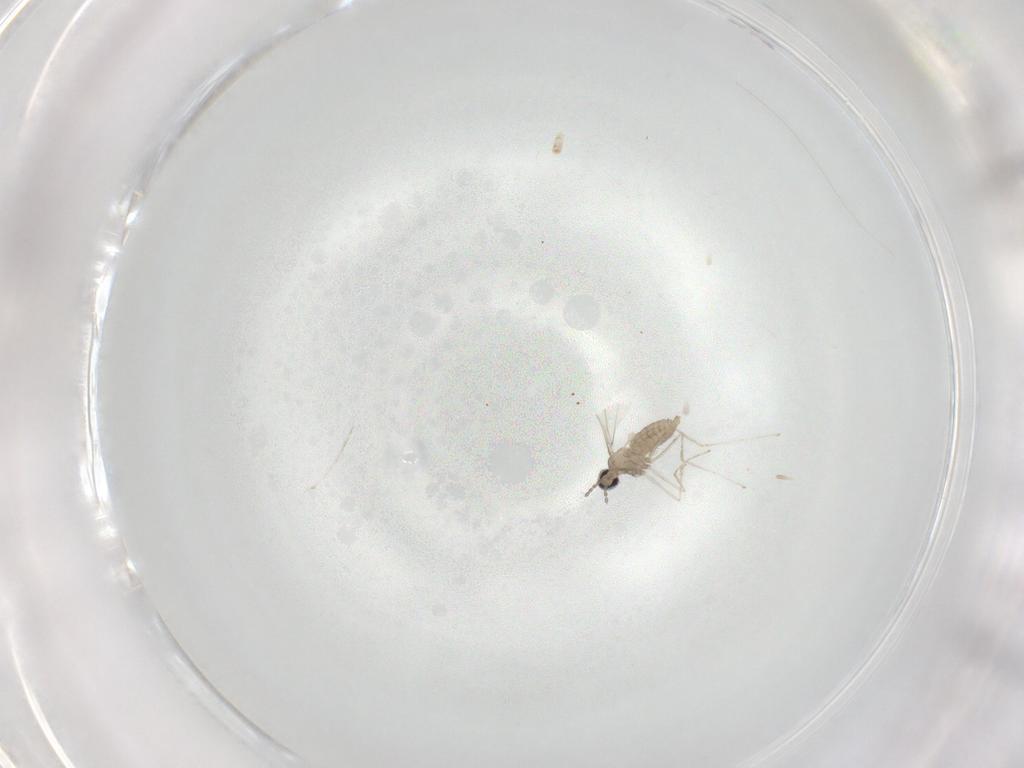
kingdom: Animalia
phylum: Arthropoda
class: Insecta
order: Diptera
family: Cecidomyiidae
